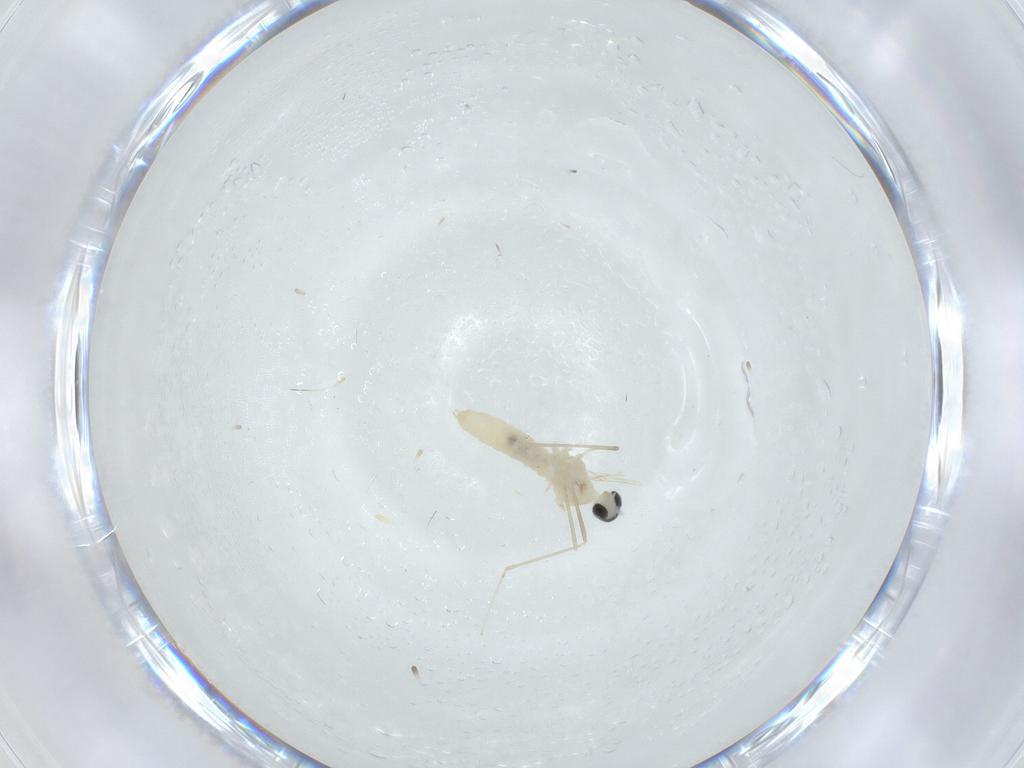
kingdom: Animalia
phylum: Arthropoda
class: Insecta
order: Diptera
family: Cecidomyiidae
